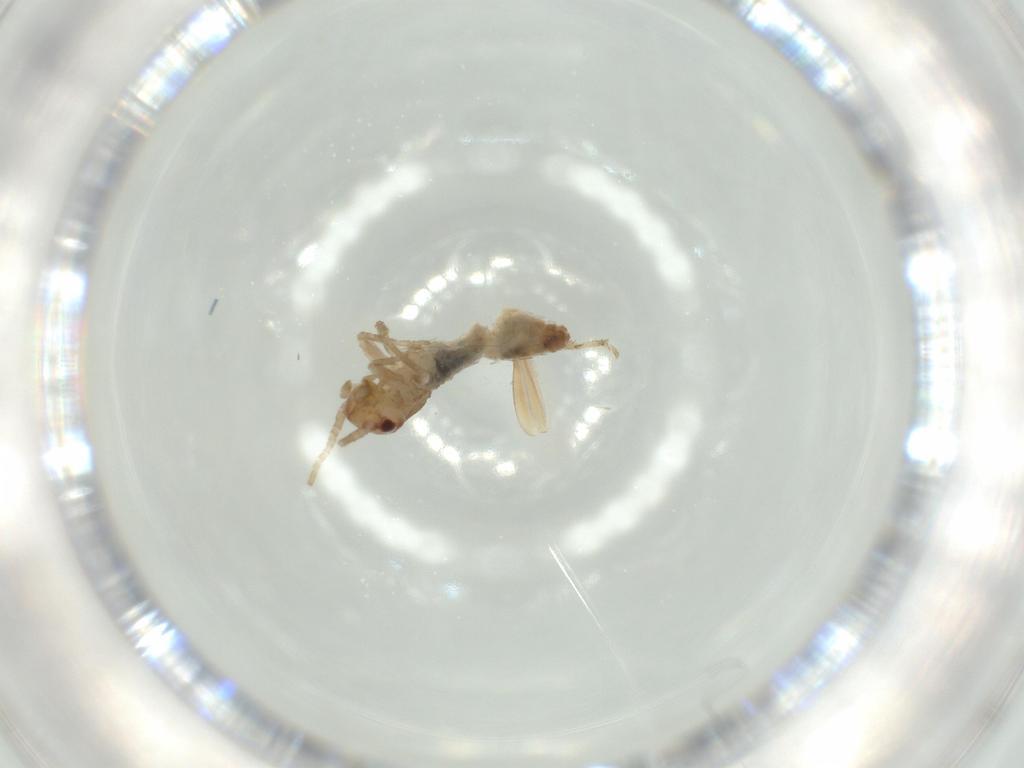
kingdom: Animalia
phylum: Arthropoda
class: Insecta
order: Orthoptera
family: Mogoplistidae
